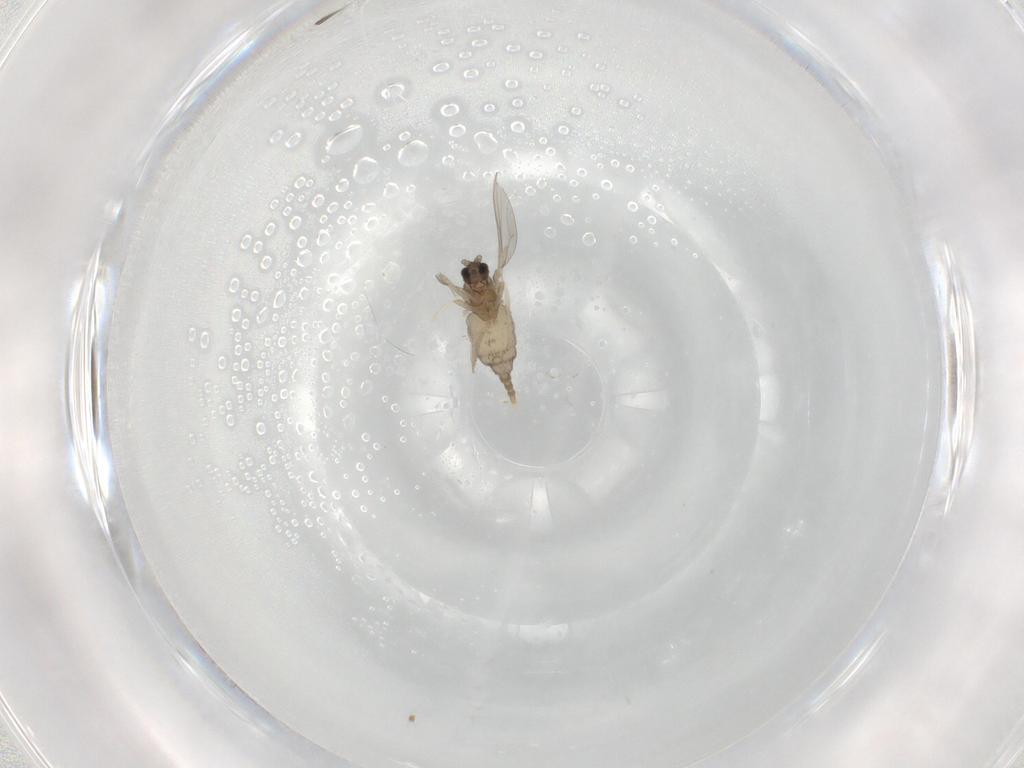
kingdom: Animalia
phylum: Arthropoda
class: Insecta
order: Diptera
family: Cecidomyiidae
